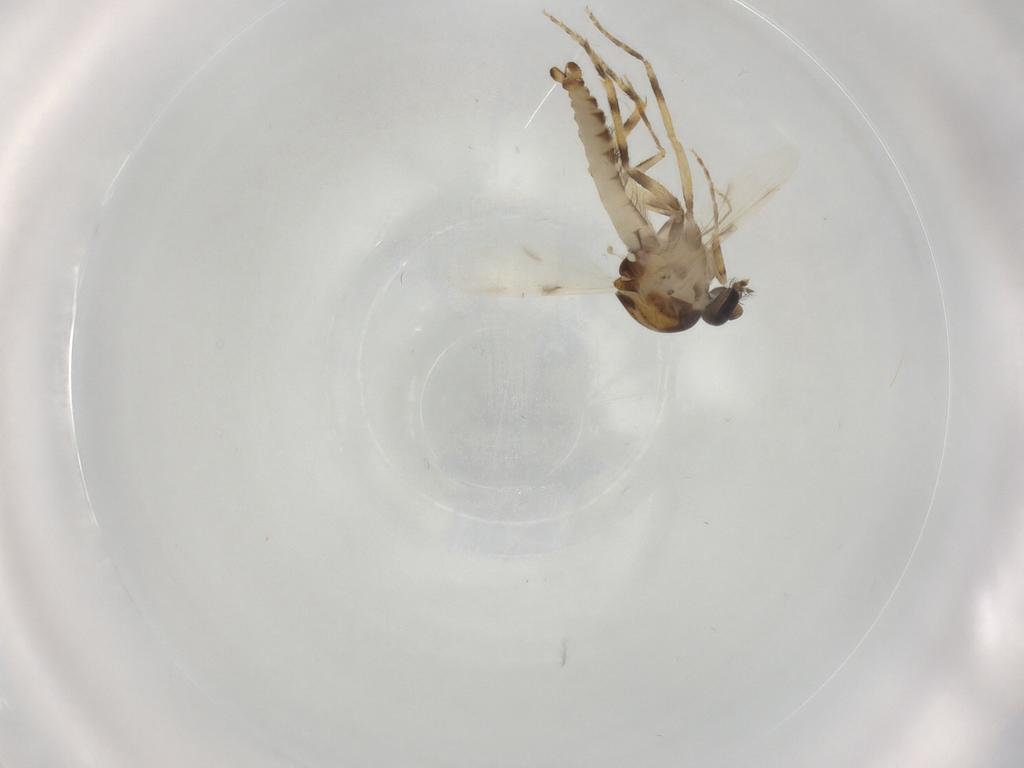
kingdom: Animalia
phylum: Arthropoda
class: Insecta
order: Diptera
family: Ceratopogonidae
